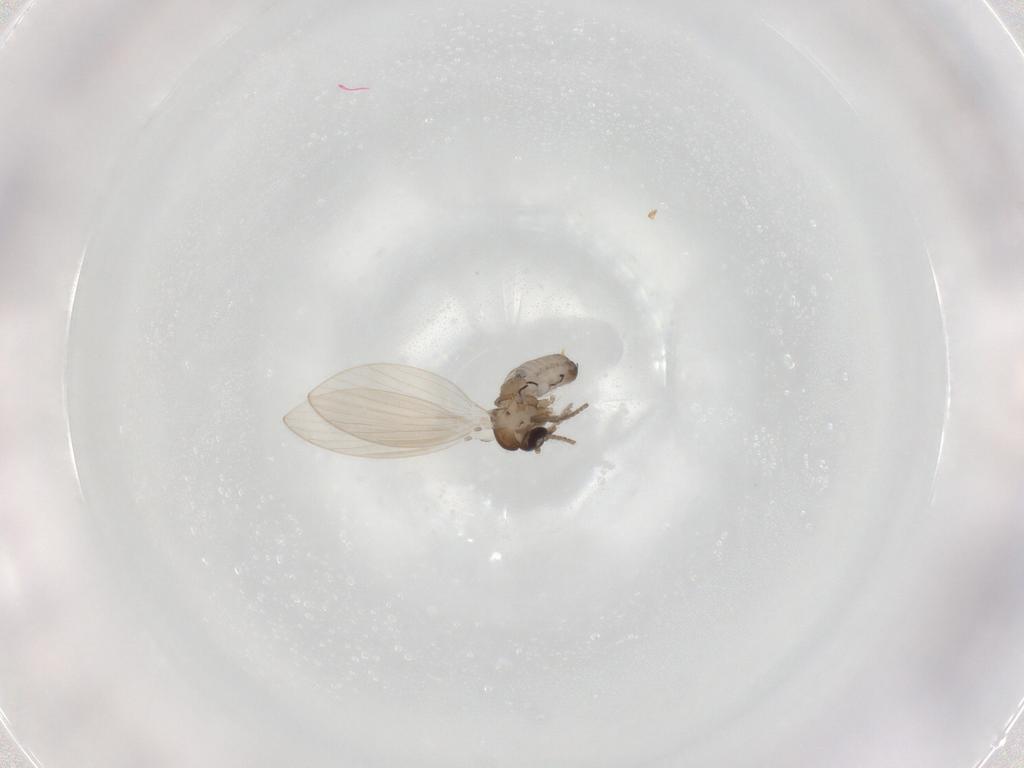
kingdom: Animalia
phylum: Arthropoda
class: Insecta
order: Diptera
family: Psychodidae
